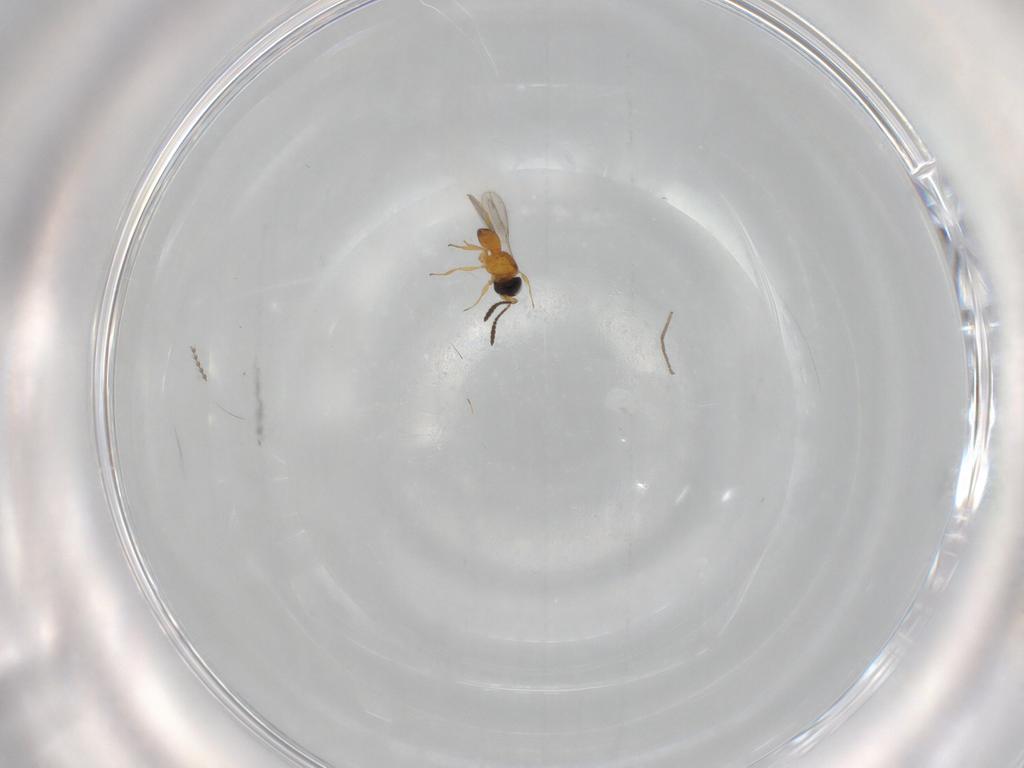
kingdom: Animalia
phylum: Arthropoda
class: Insecta
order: Hymenoptera
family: Scelionidae
